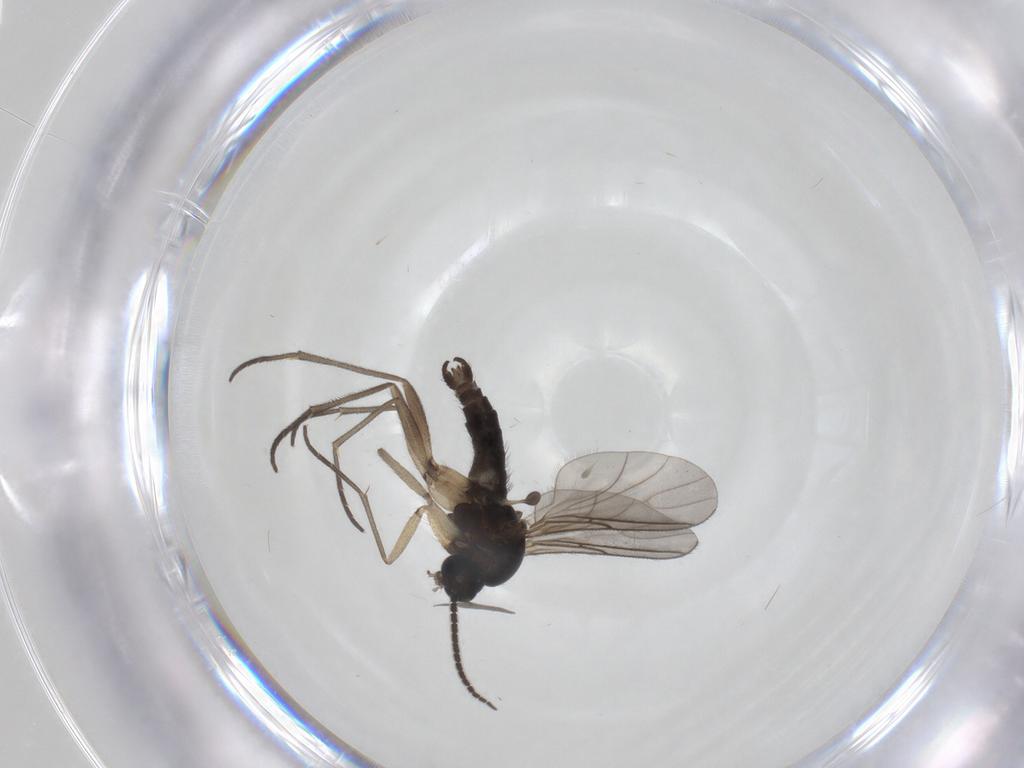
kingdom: Animalia
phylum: Arthropoda
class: Insecta
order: Diptera
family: Sciaridae
